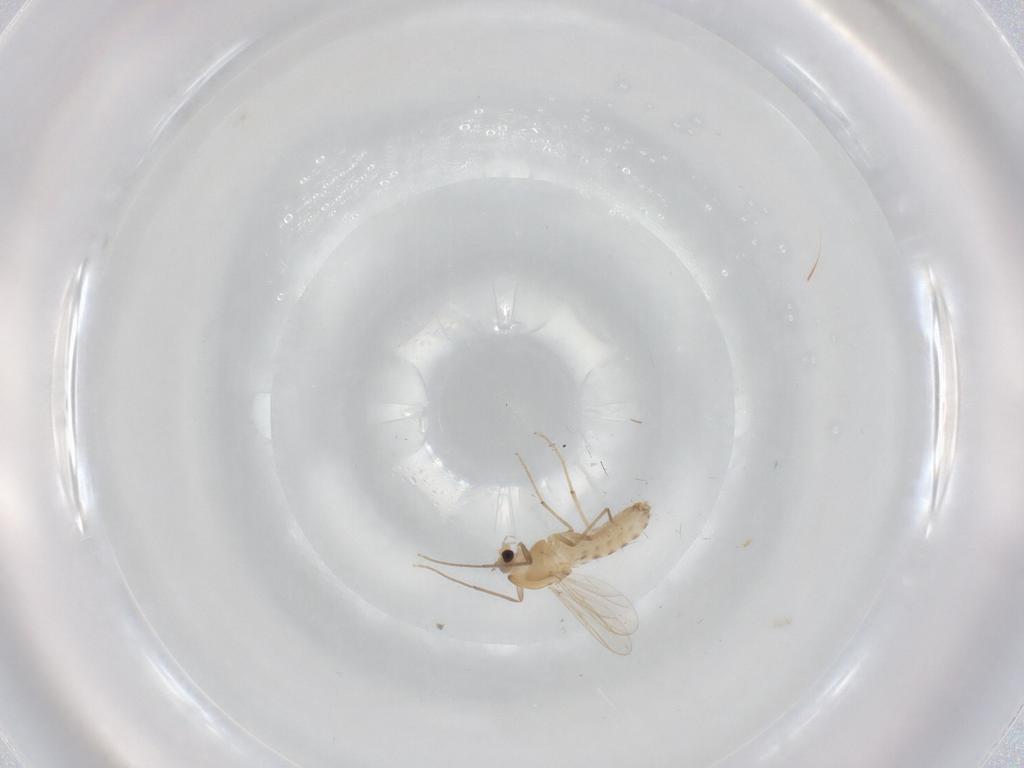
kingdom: Animalia
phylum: Arthropoda
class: Insecta
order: Diptera
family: Chironomidae
